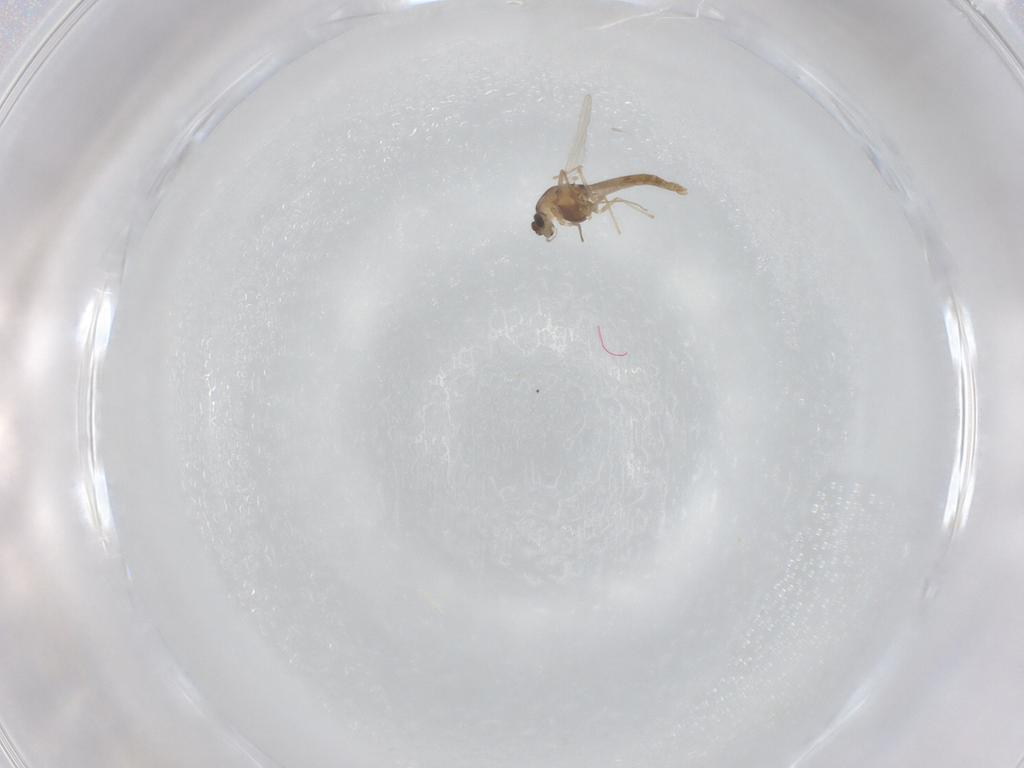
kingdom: Animalia
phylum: Arthropoda
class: Insecta
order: Diptera
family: Chironomidae
